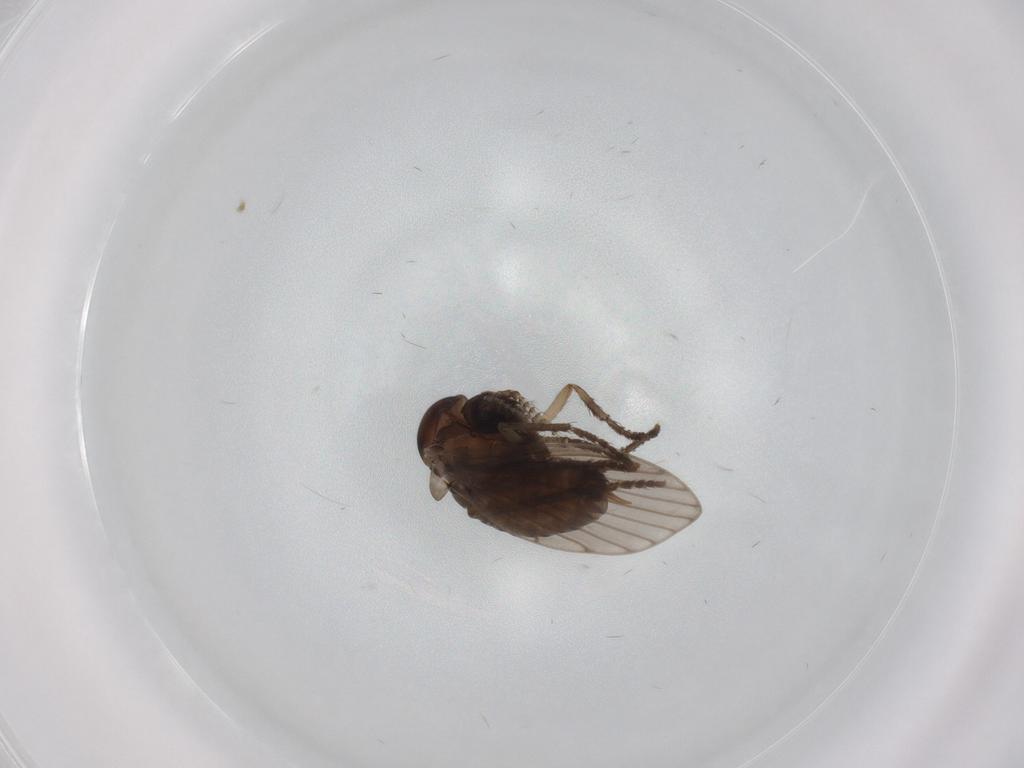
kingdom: Animalia
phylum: Arthropoda
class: Insecta
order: Diptera
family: Psychodidae
